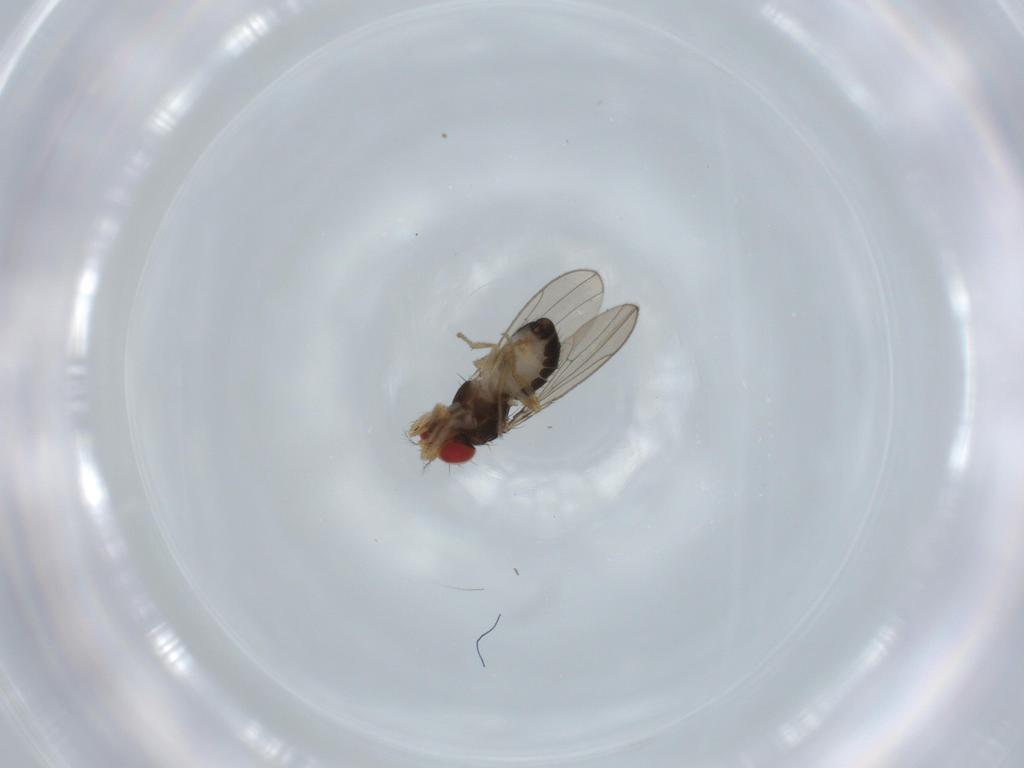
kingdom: Animalia
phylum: Arthropoda
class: Insecta
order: Diptera
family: Drosophilidae
